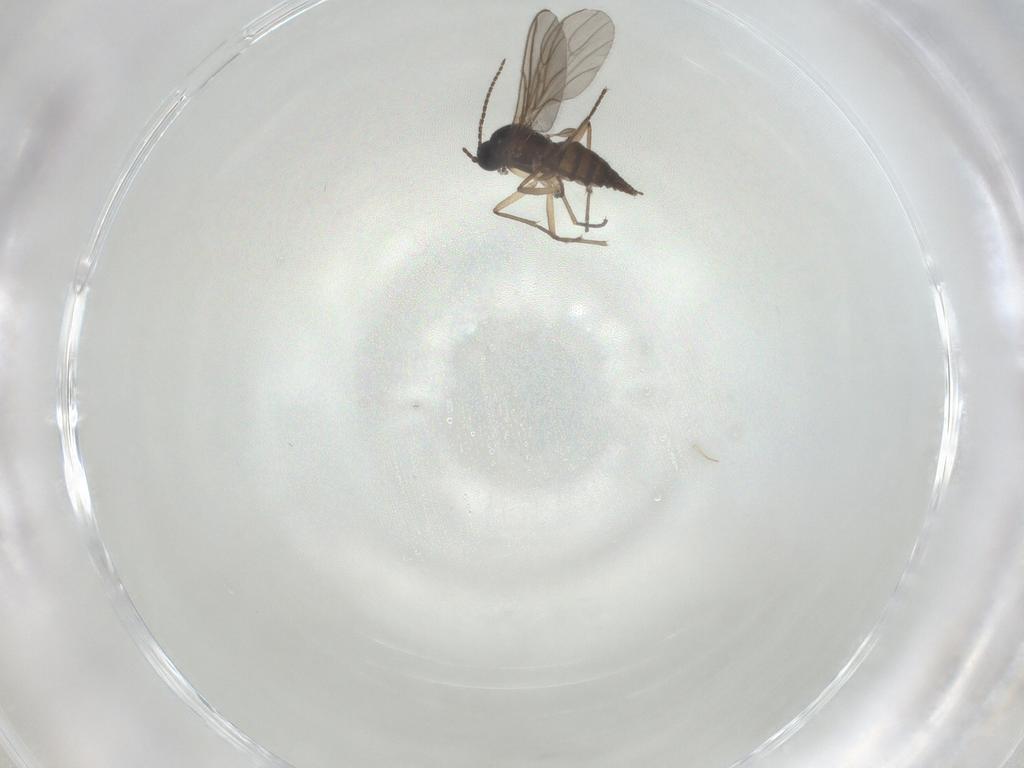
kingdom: Animalia
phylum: Arthropoda
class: Insecta
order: Diptera
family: Sciaridae
